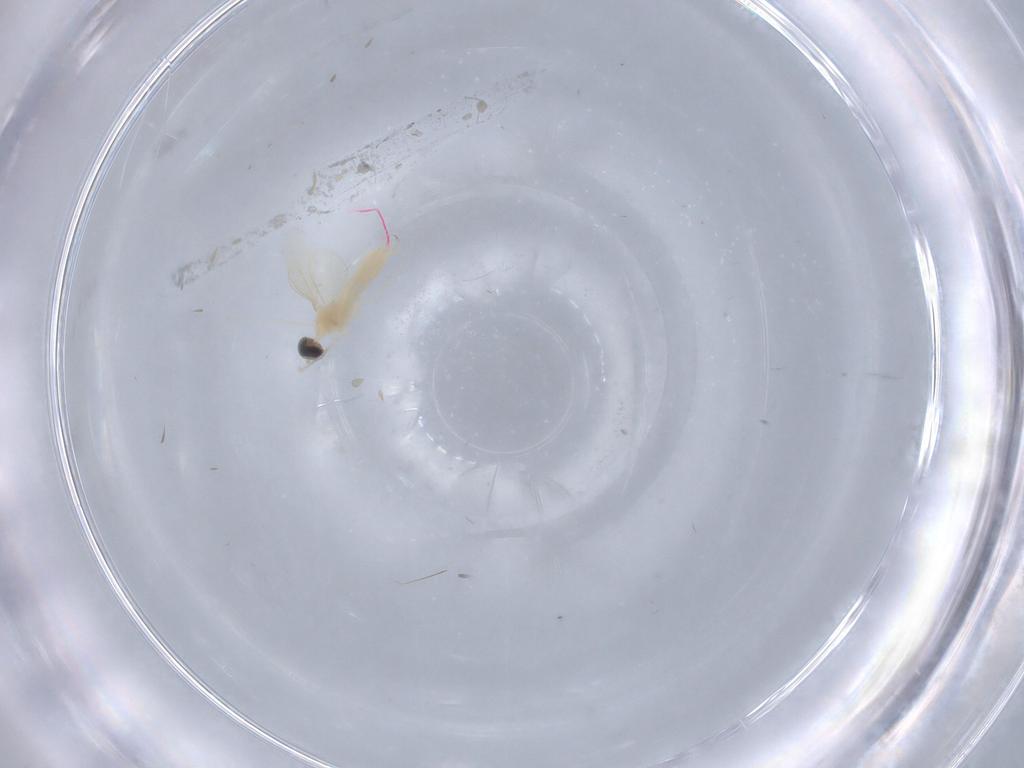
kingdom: Animalia
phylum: Arthropoda
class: Insecta
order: Diptera
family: Cecidomyiidae
